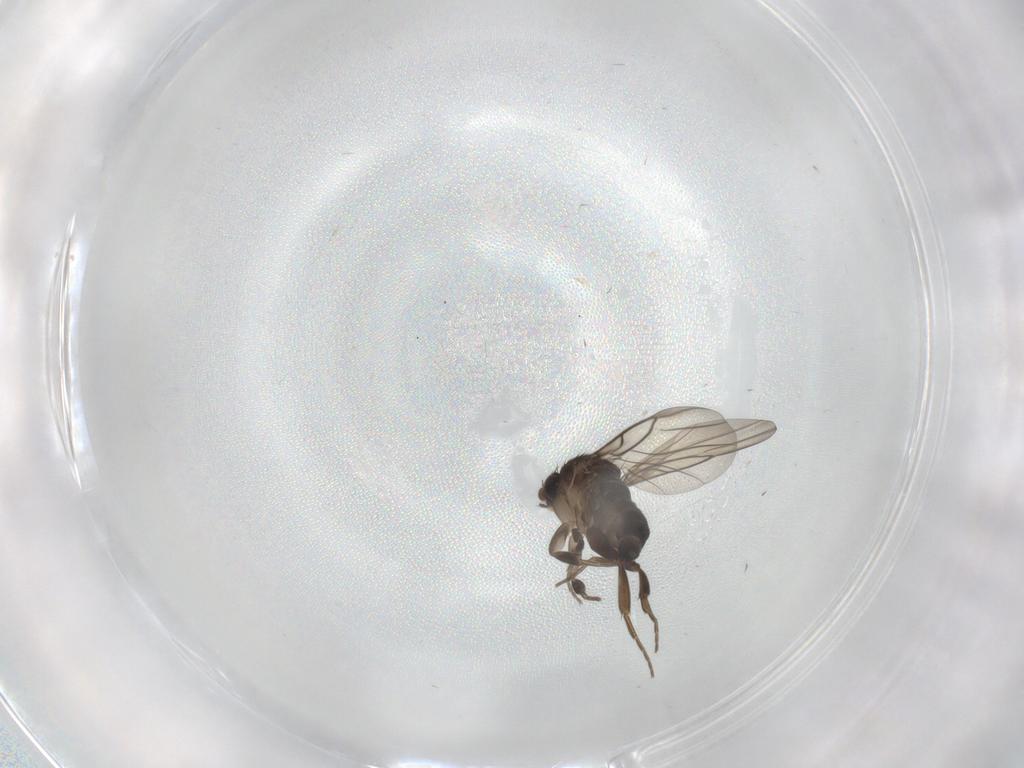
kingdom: Animalia
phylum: Arthropoda
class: Insecta
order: Diptera
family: Phoridae
